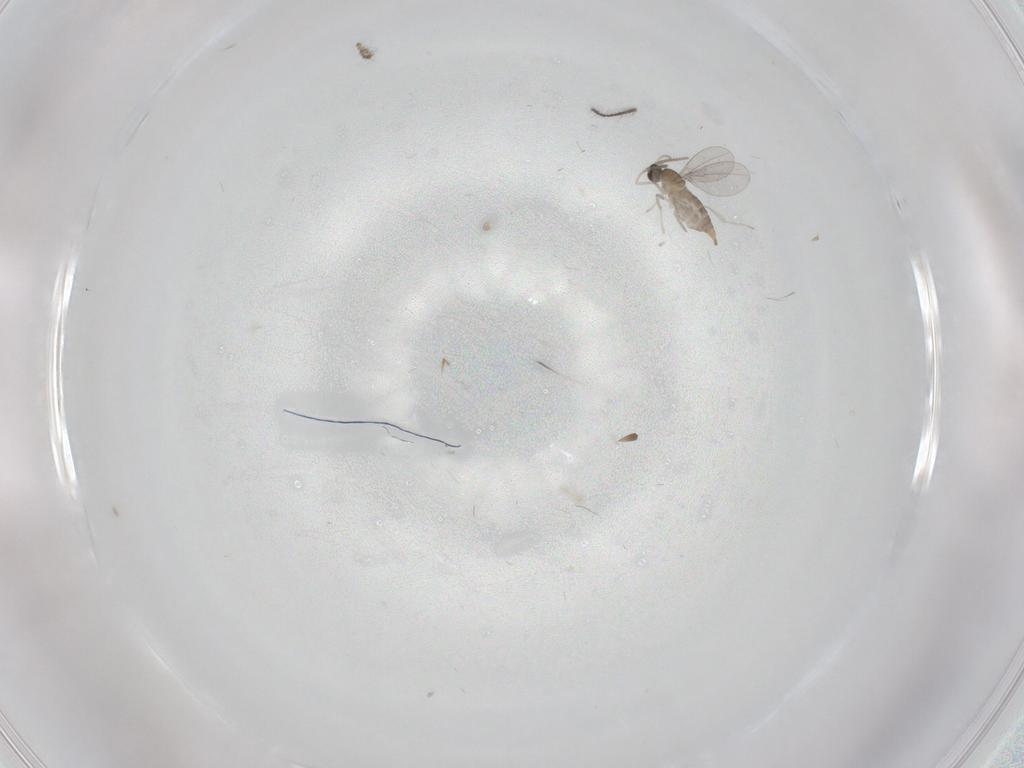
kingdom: Animalia
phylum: Arthropoda
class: Insecta
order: Diptera
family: Cecidomyiidae
